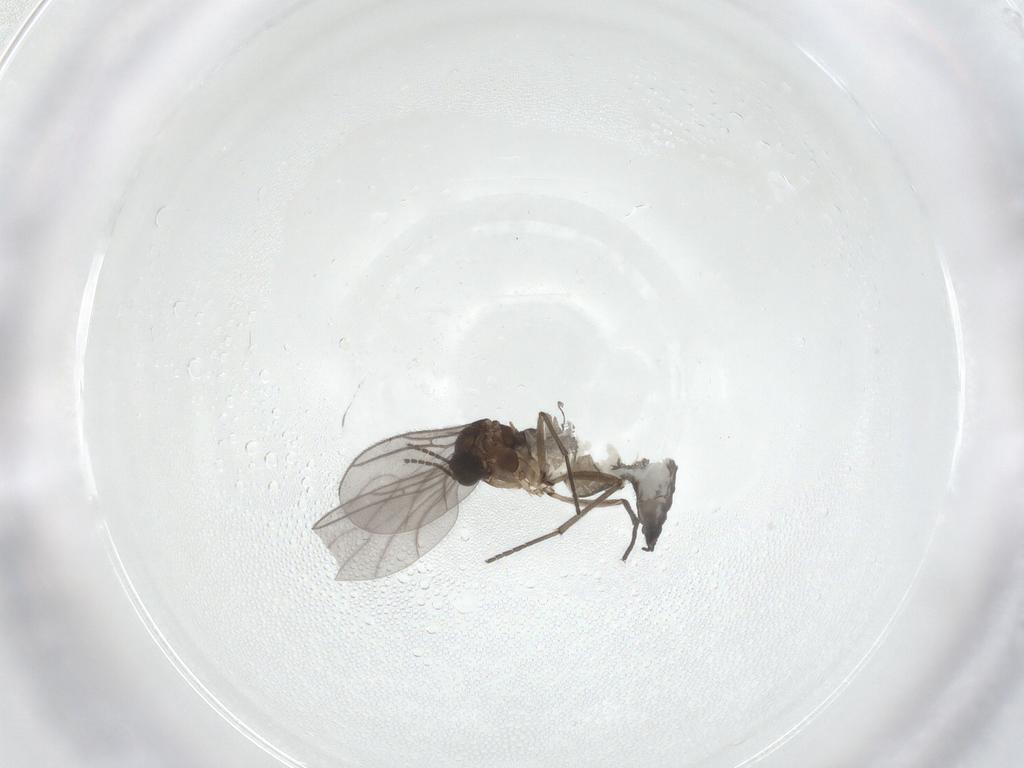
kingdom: Animalia
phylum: Arthropoda
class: Insecta
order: Diptera
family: Sciaridae
